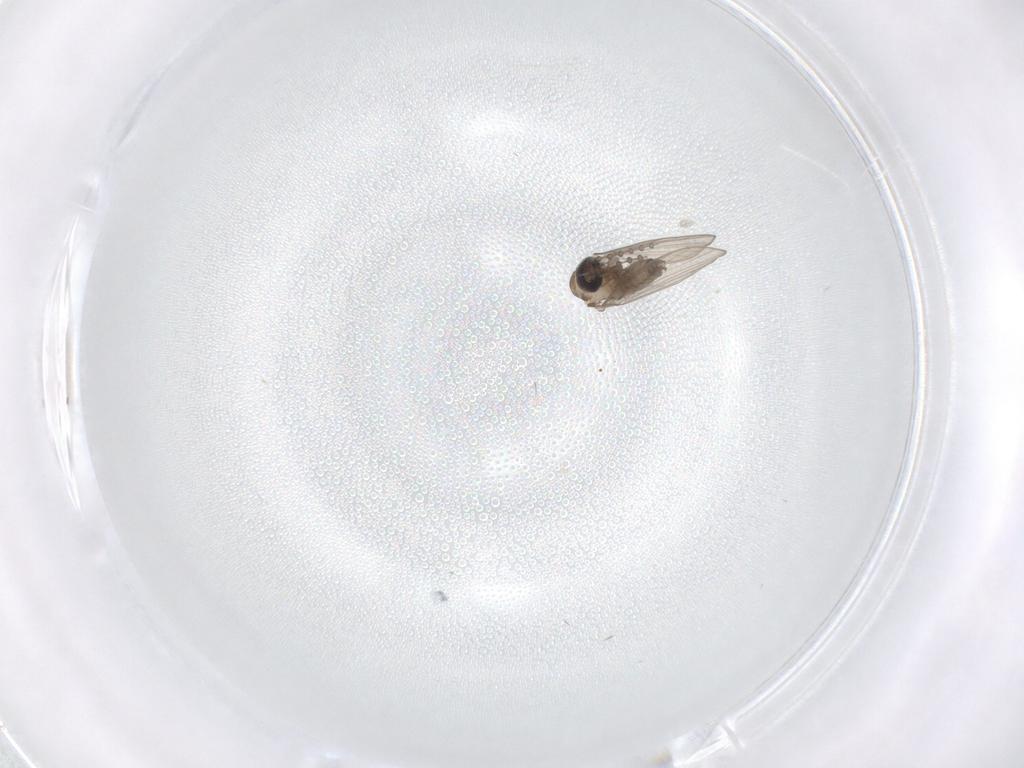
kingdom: Animalia
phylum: Arthropoda
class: Insecta
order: Diptera
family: Psychodidae
